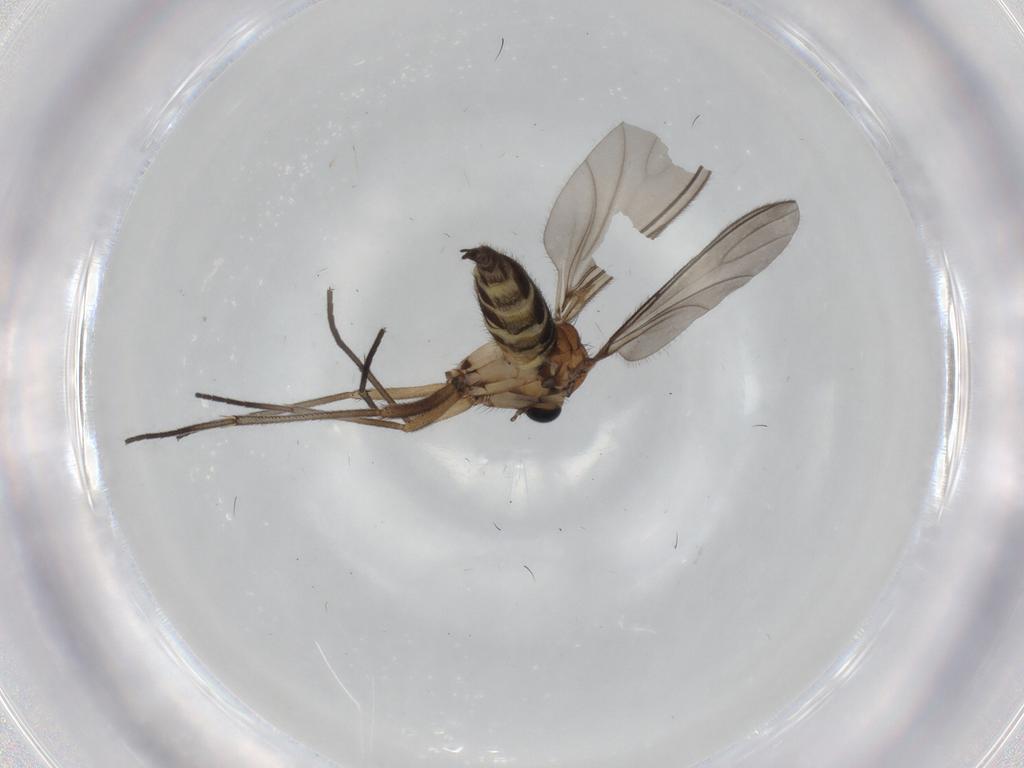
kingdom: Animalia
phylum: Arthropoda
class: Insecta
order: Diptera
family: Sciaridae
